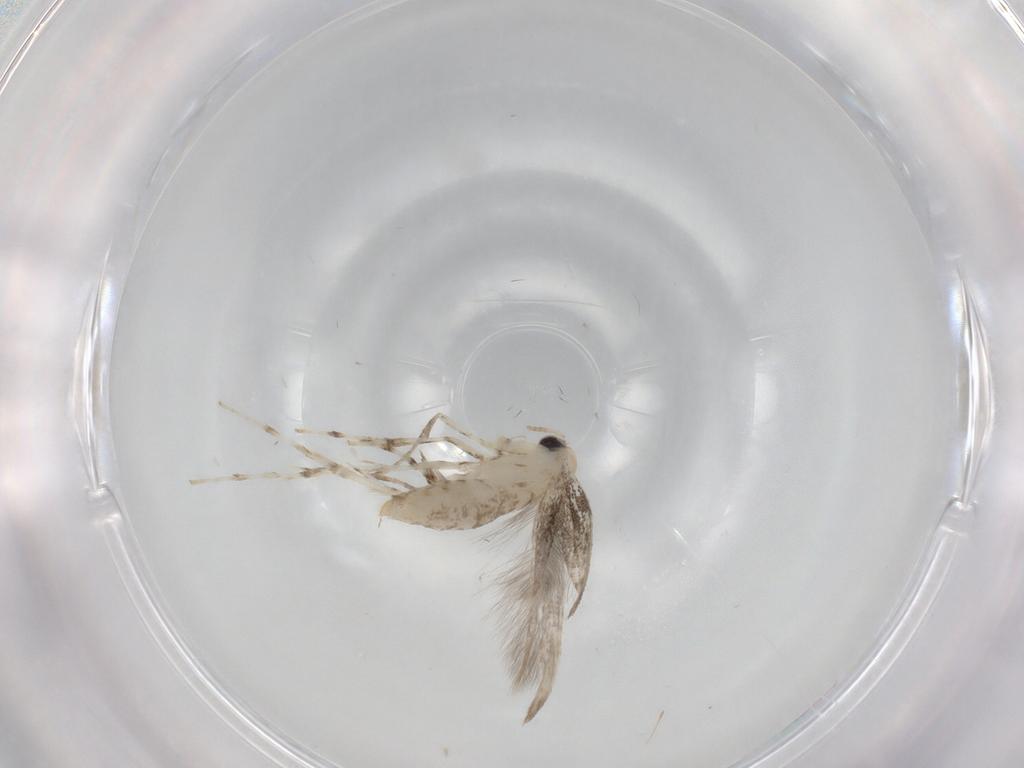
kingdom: Animalia
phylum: Arthropoda
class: Insecta
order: Lepidoptera
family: Gracillariidae
